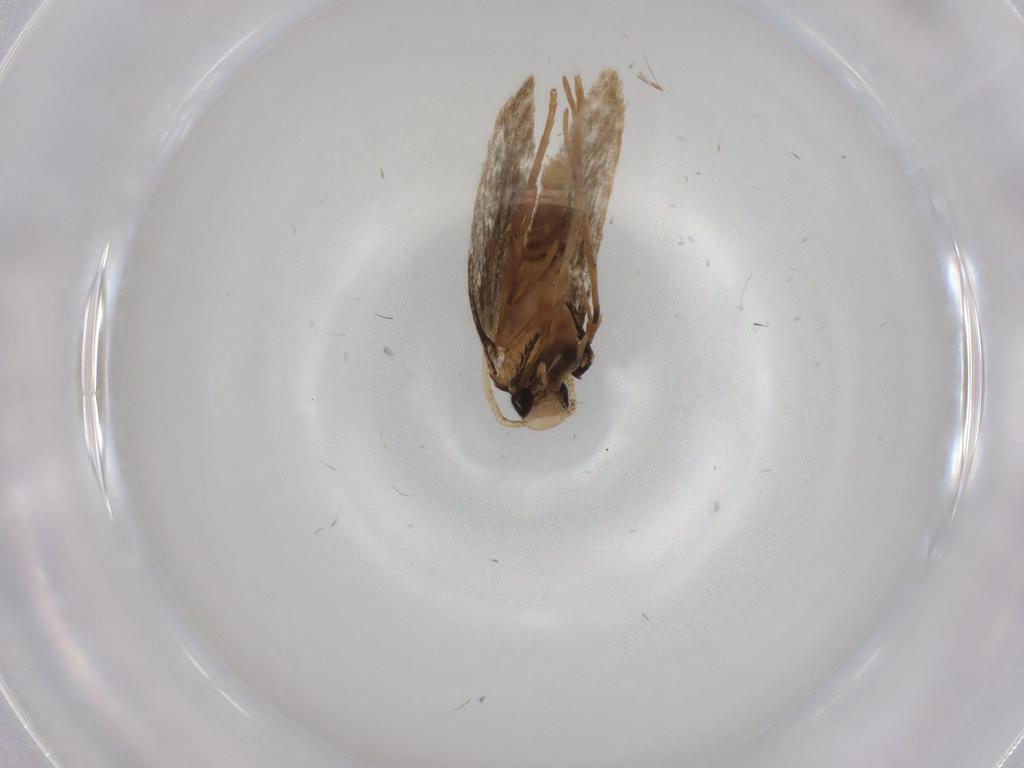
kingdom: Animalia
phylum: Arthropoda
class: Insecta
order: Lepidoptera
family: Cosmopterigidae
